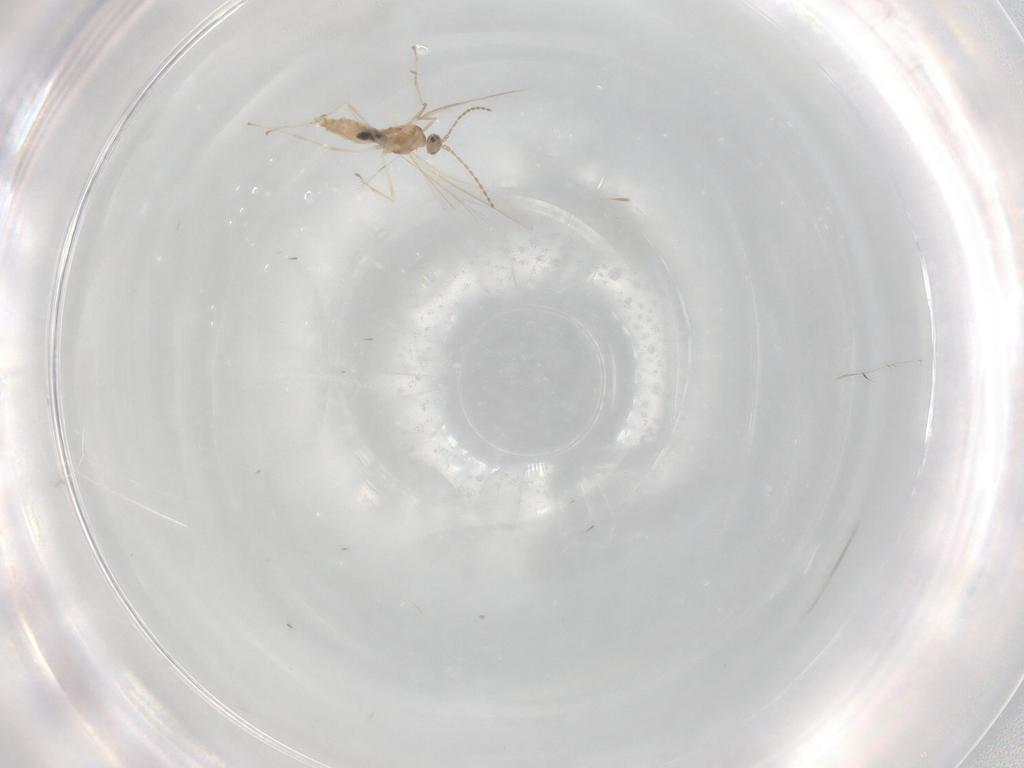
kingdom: Animalia
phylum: Arthropoda
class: Insecta
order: Diptera
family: Cecidomyiidae
